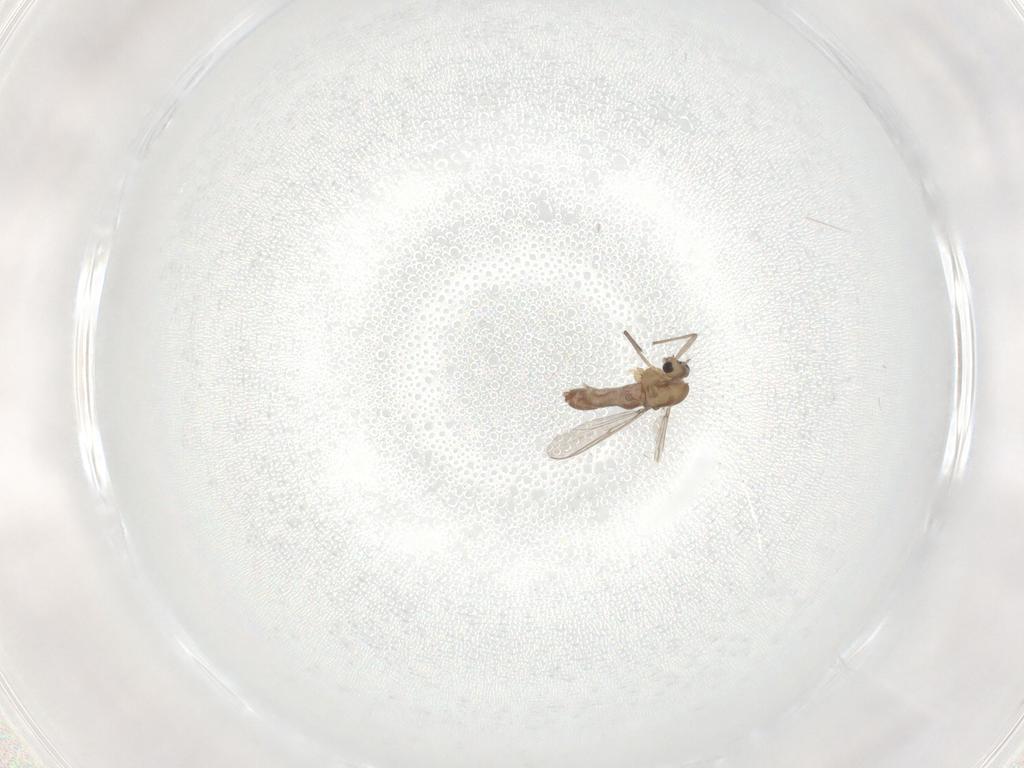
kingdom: Animalia
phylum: Arthropoda
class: Insecta
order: Diptera
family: Chironomidae
